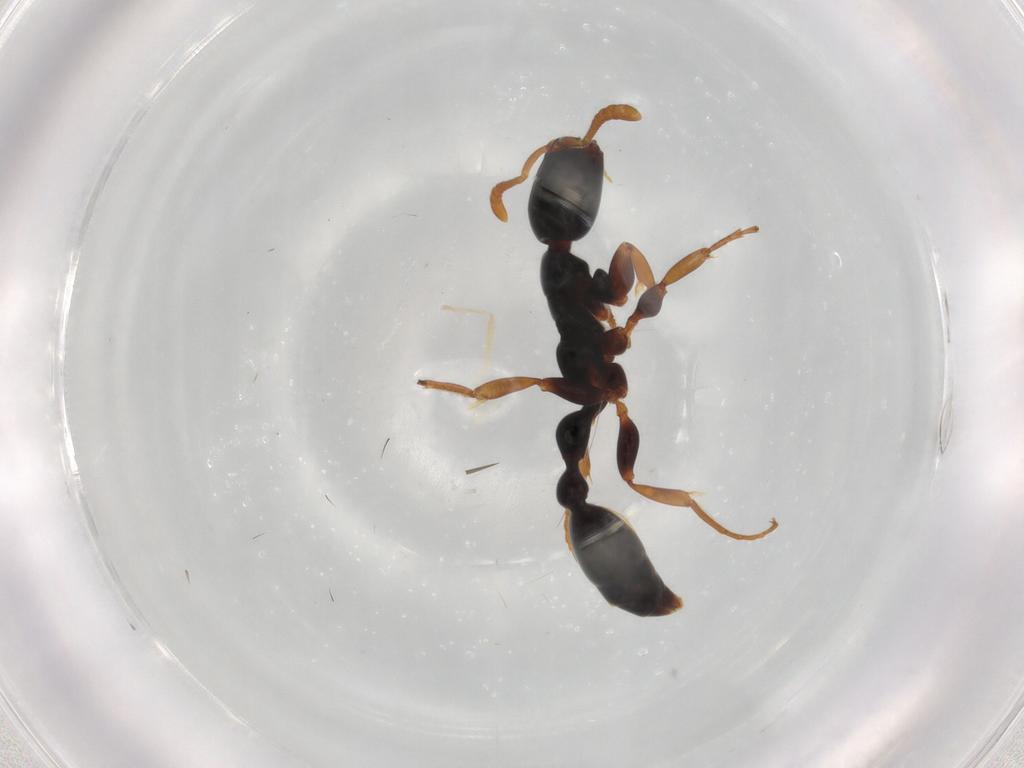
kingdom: Animalia
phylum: Arthropoda
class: Insecta
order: Hymenoptera
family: Formicidae
